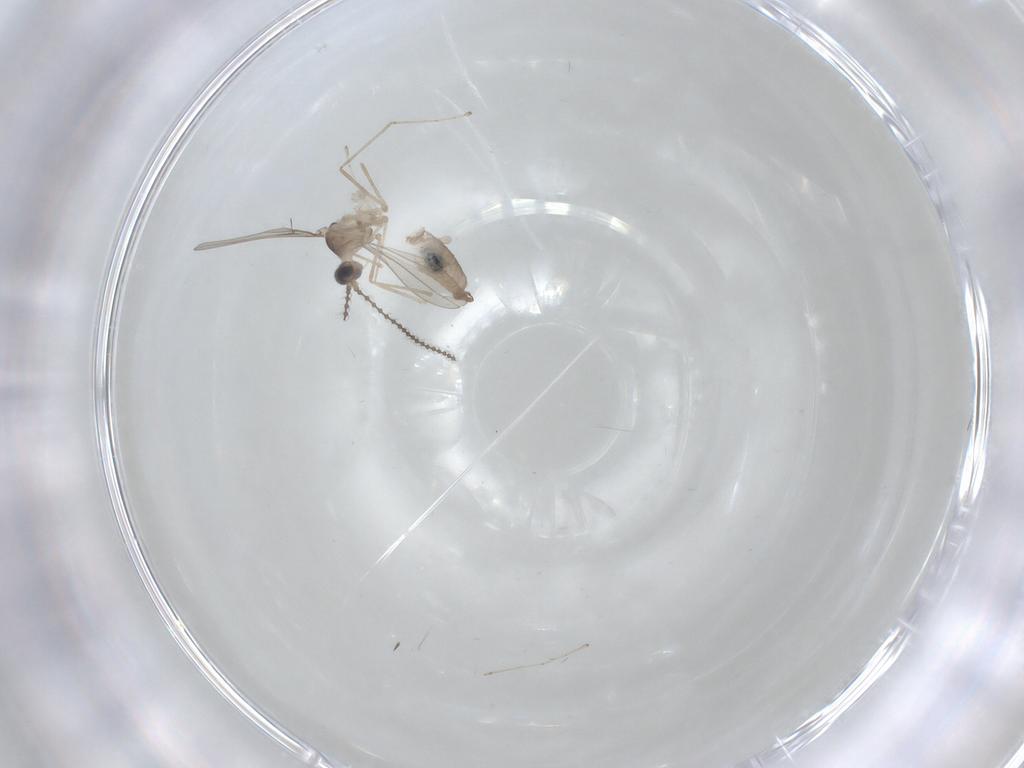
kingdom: Animalia
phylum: Arthropoda
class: Insecta
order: Diptera
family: Cecidomyiidae
